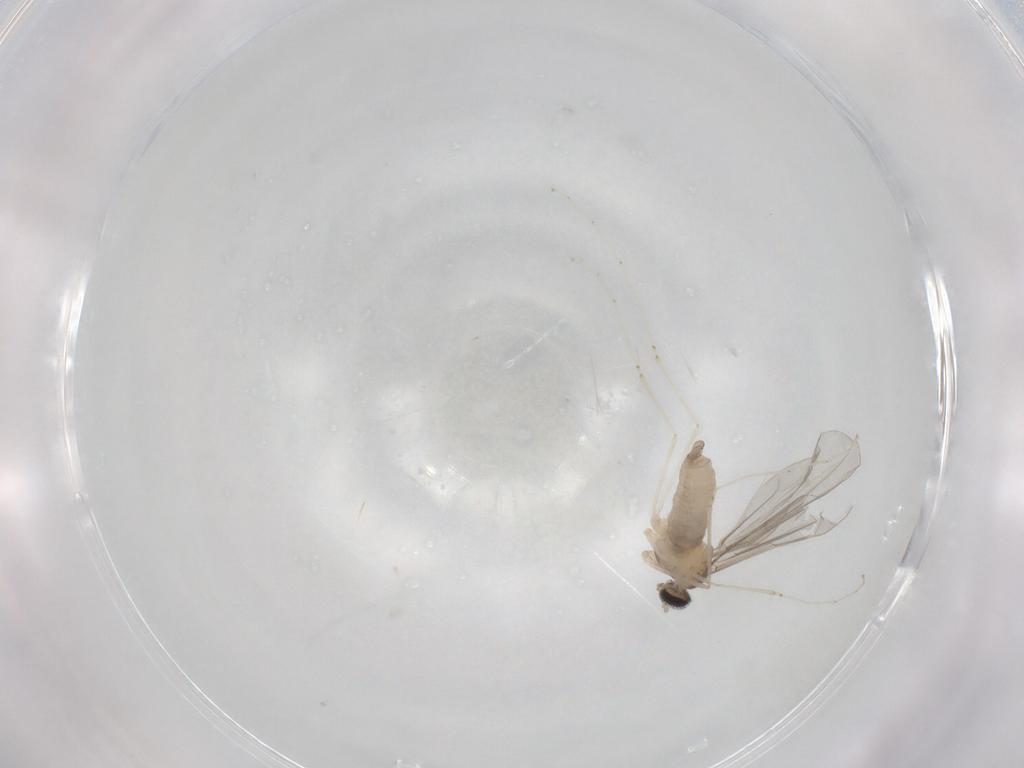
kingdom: Animalia
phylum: Arthropoda
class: Insecta
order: Diptera
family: Cecidomyiidae
